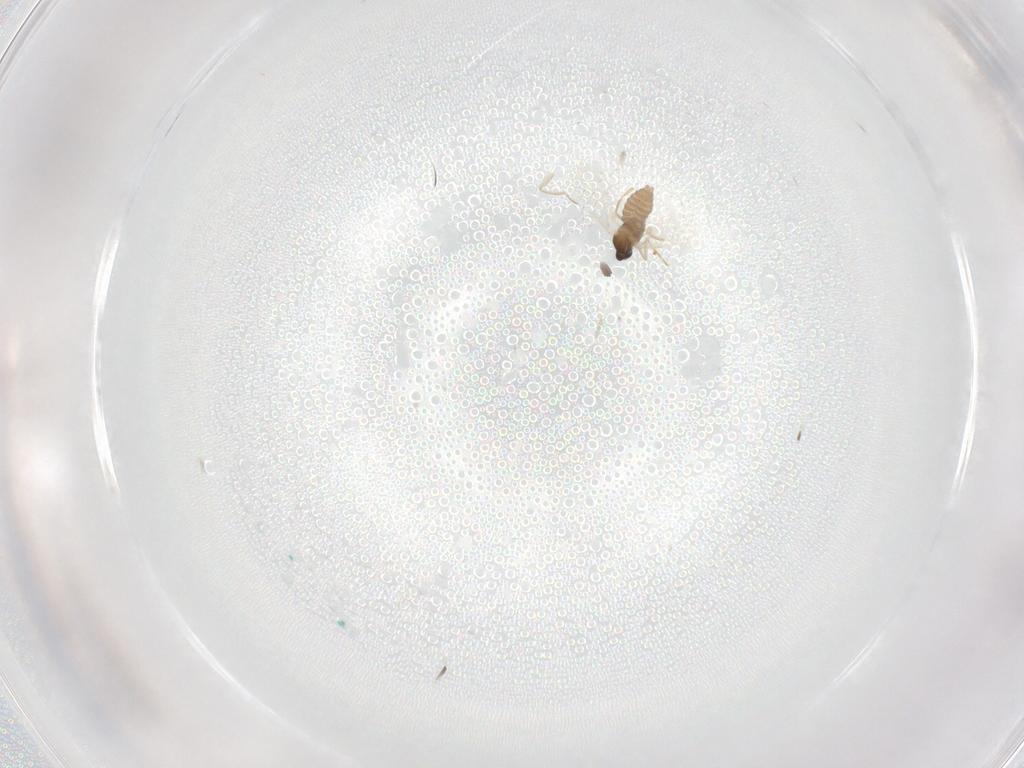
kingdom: Animalia
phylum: Arthropoda
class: Insecta
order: Diptera
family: Cecidomyiidae
